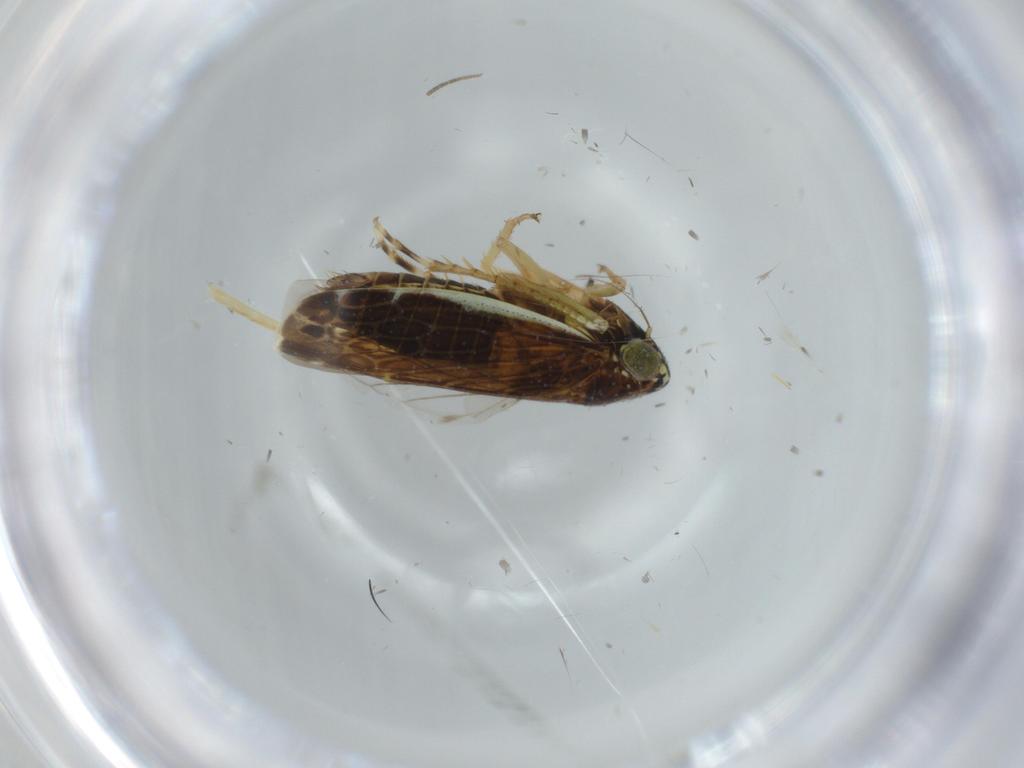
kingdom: Animalia
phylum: Arthropoda
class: Insecta
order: Hemiptera
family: Cicadellidae
